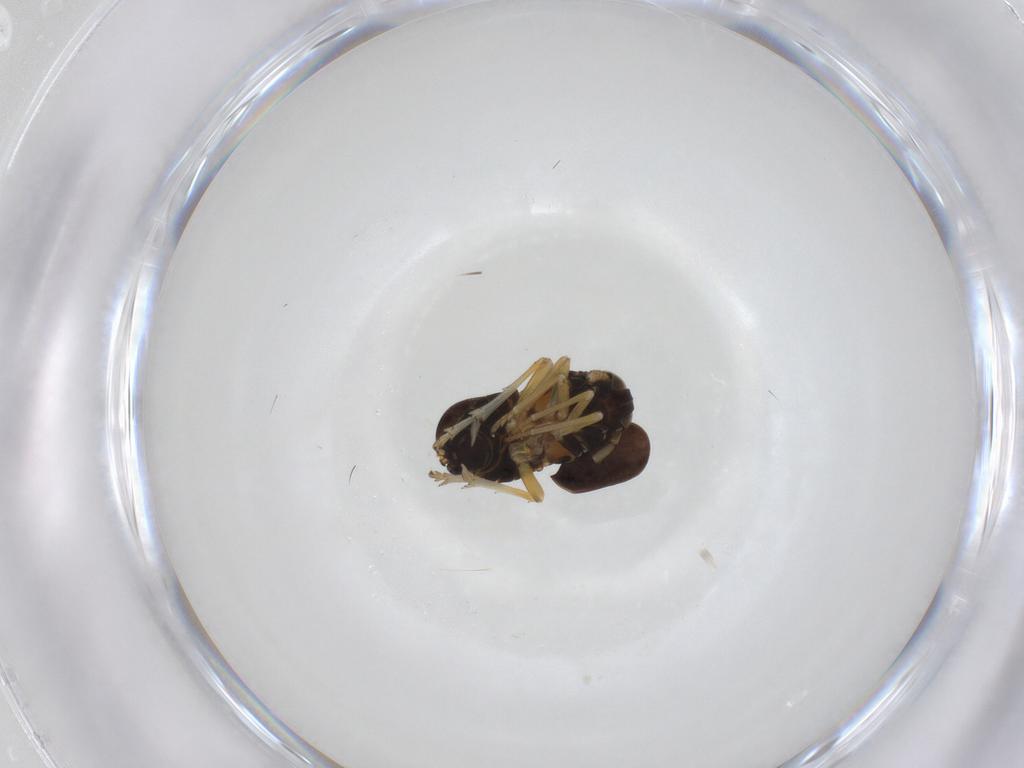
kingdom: Animalia
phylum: Arthropoda
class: Insecta
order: Hemiptera
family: Delphacidae
